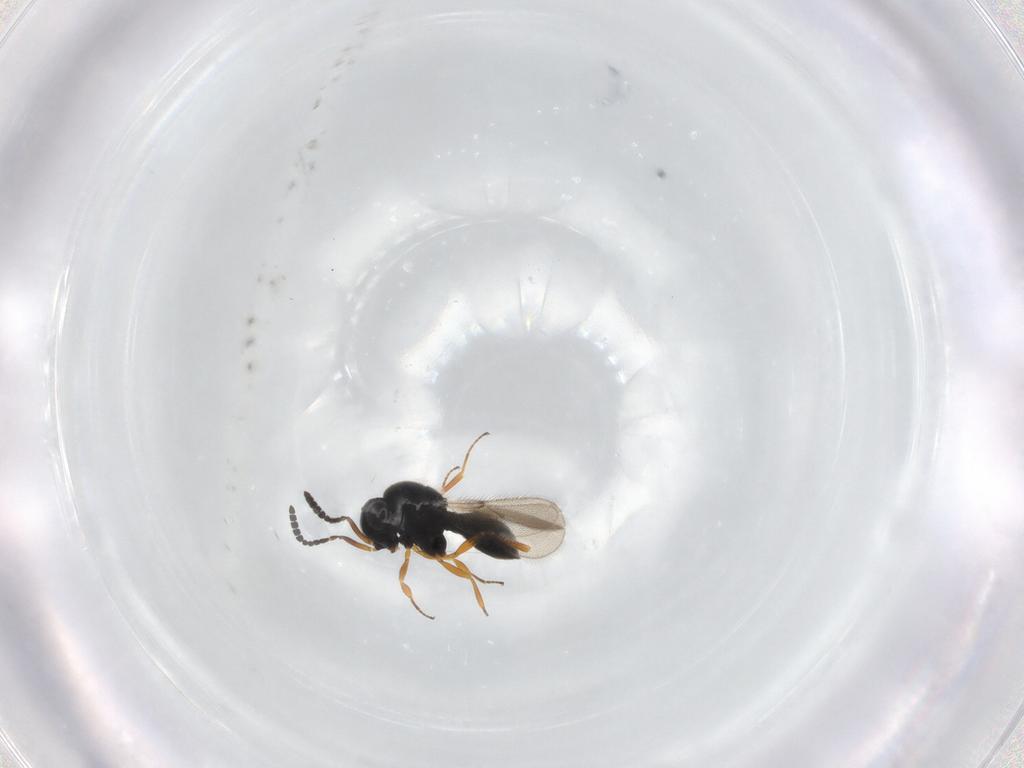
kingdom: Animalia
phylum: Arthropoda
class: Insecta
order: Hymenoptera
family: Scelionidae
